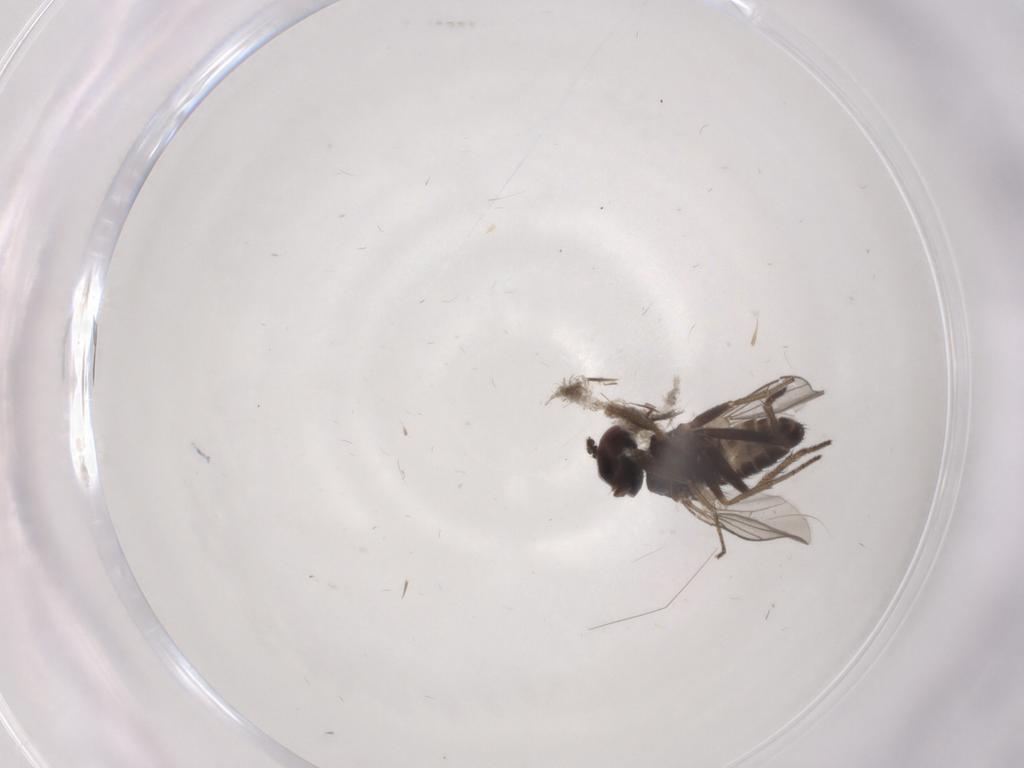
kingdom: Animalia
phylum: Arthropoda
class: Insecta
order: Diptera
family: Dolichopodidae
